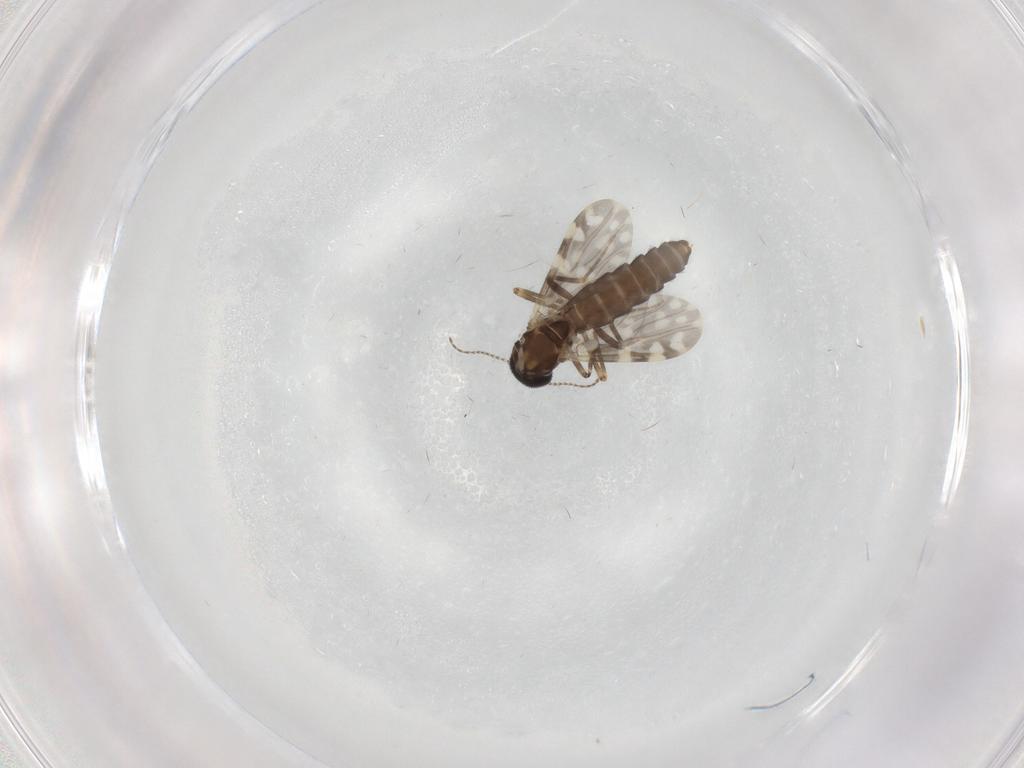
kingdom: Animalia
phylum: Arthropoda
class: Insecta
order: Diptera
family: Ceratopogonidae
